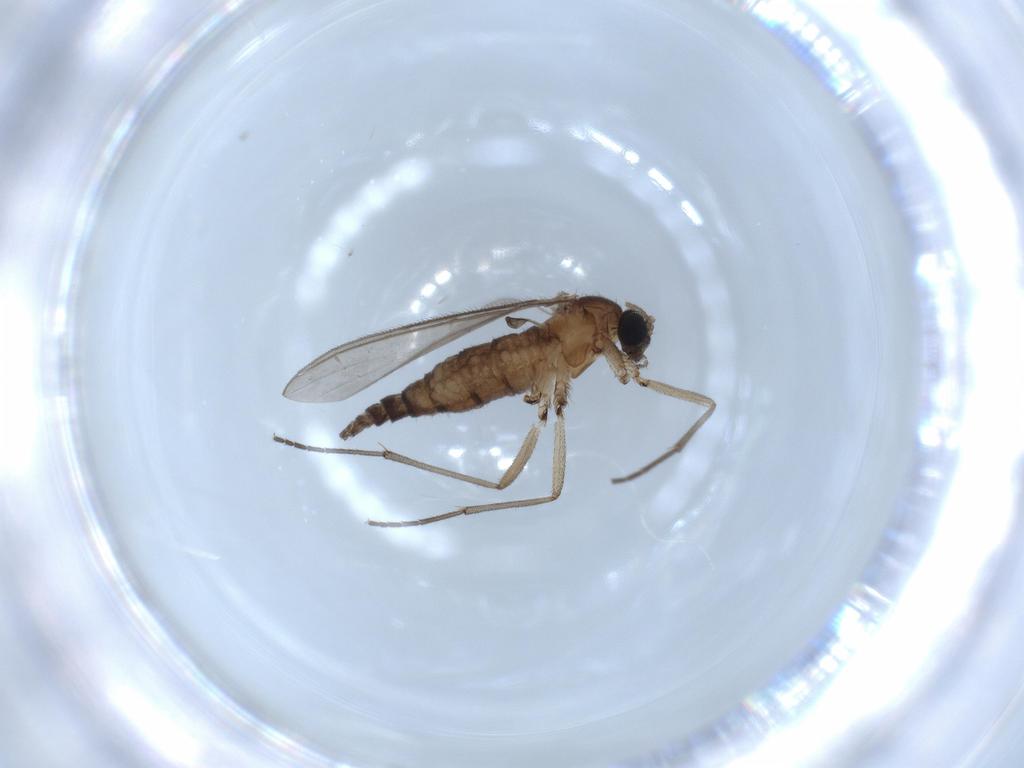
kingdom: Animalia
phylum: Arthropoda
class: Insecta
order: Diptera
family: Sciaridae
